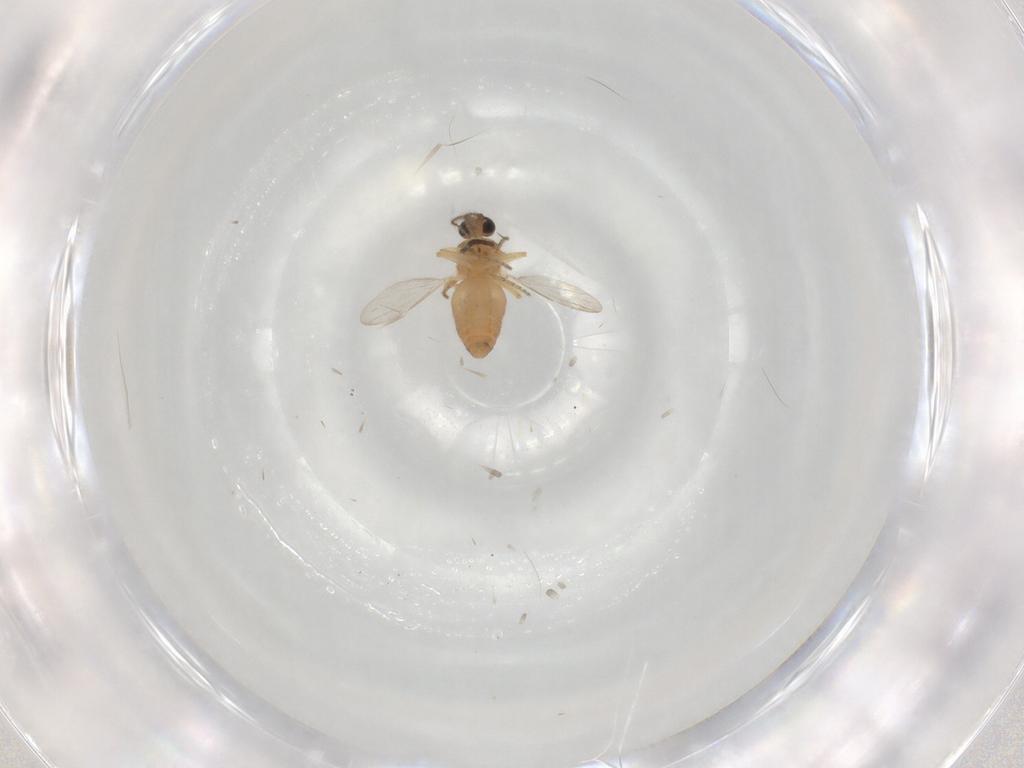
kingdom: Animalia
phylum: Arthropoda
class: Insecta
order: Diptera
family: Ceratopogonidae
